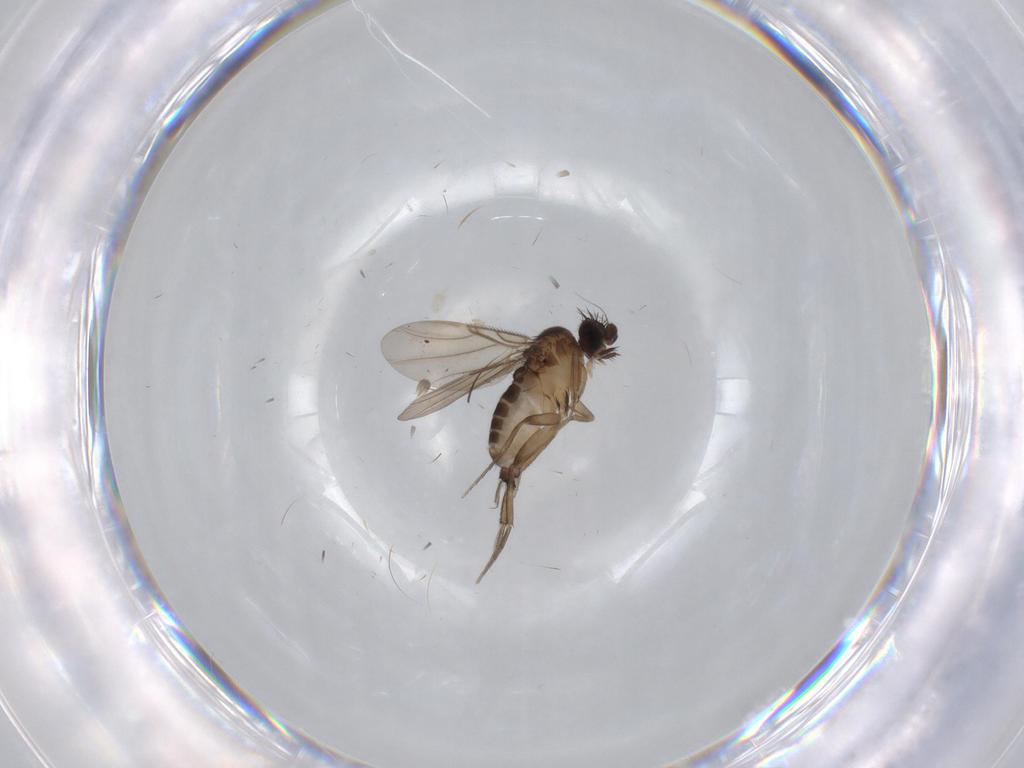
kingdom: Animalia
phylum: Arthropoda
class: Insecta
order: Diptera
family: Phoridae
